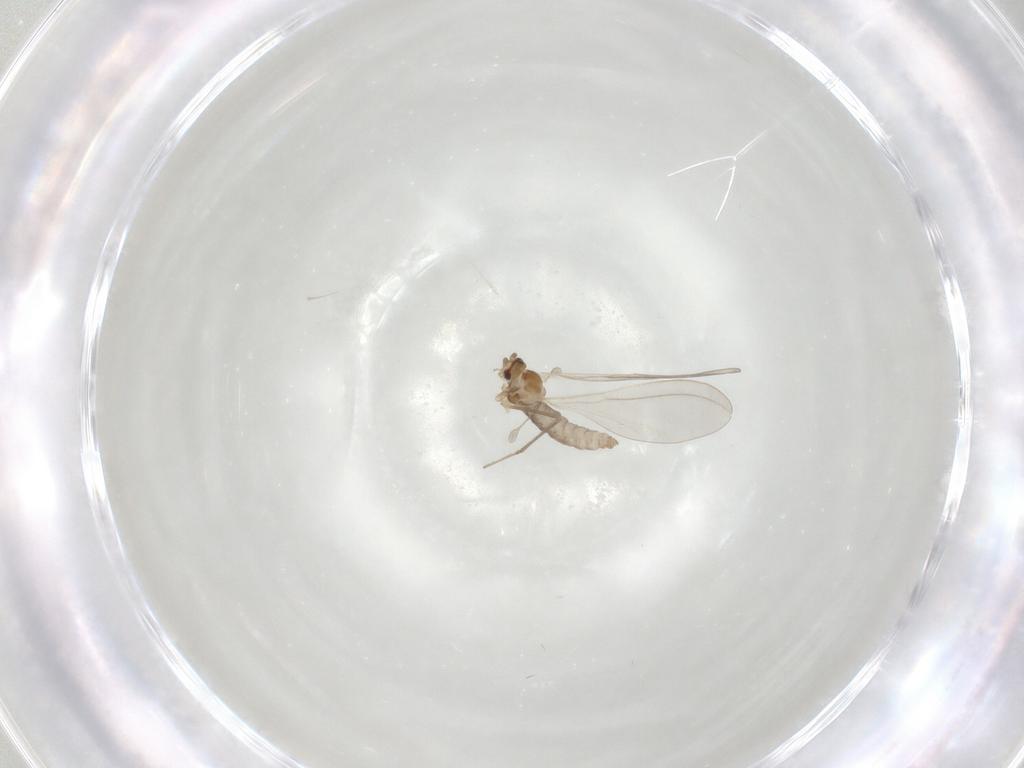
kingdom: Animalia
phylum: Arthropoda
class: Insecta
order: Diptera
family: Cecidomyiidae
